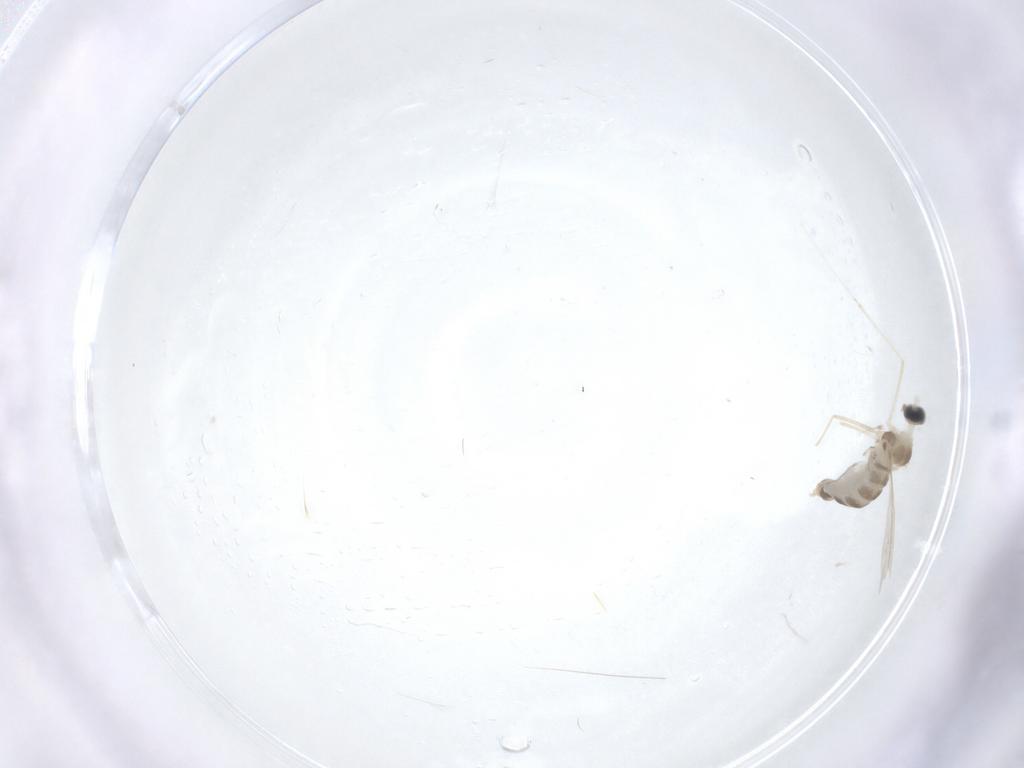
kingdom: Animalia
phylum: Arthropoda
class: Insecta
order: Diptera
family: Cecidomyiidae
